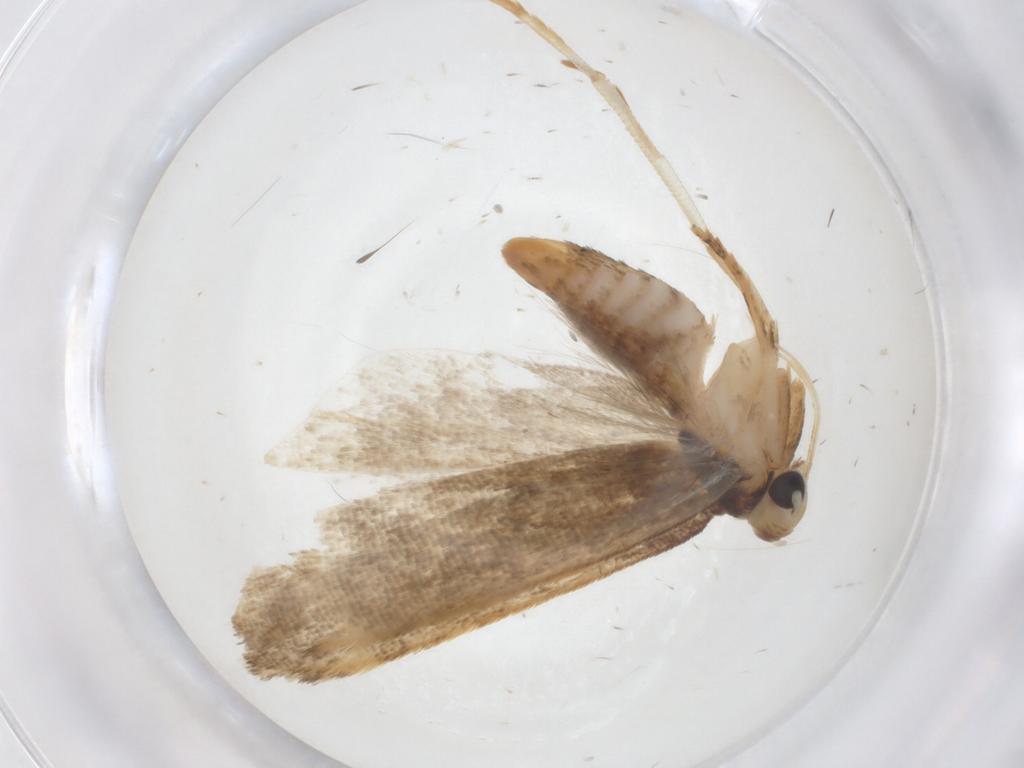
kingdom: Animalia
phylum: Arthropoda
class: Insecta
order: Lepidoptera
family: Gelechiidae
